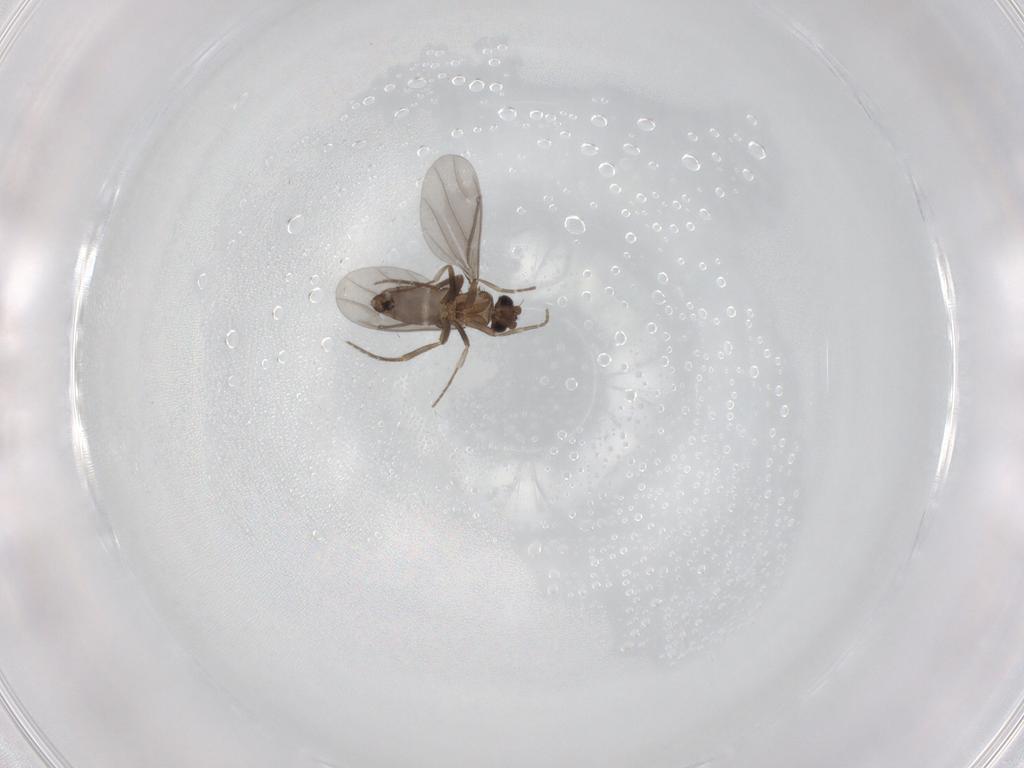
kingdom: Animalia
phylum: Arthropoda
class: Insecta
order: Diptera
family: Phoridae
